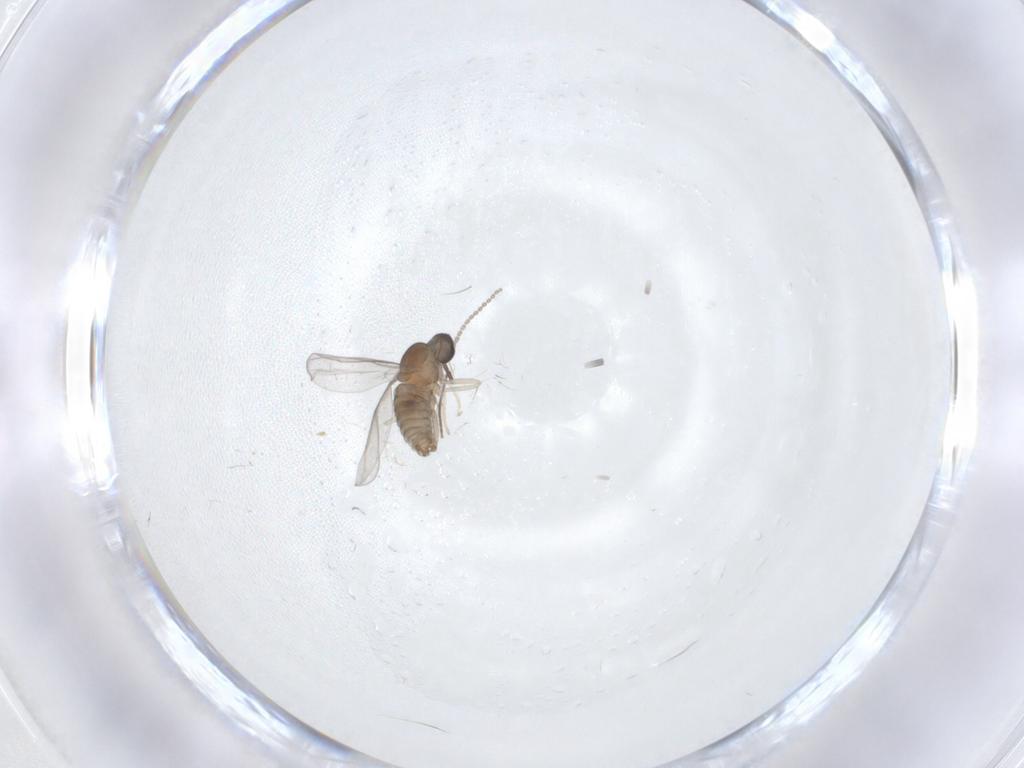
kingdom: Animalia
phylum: Arthropoda
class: Insecta
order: Diptera
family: Cecidomyiidae
